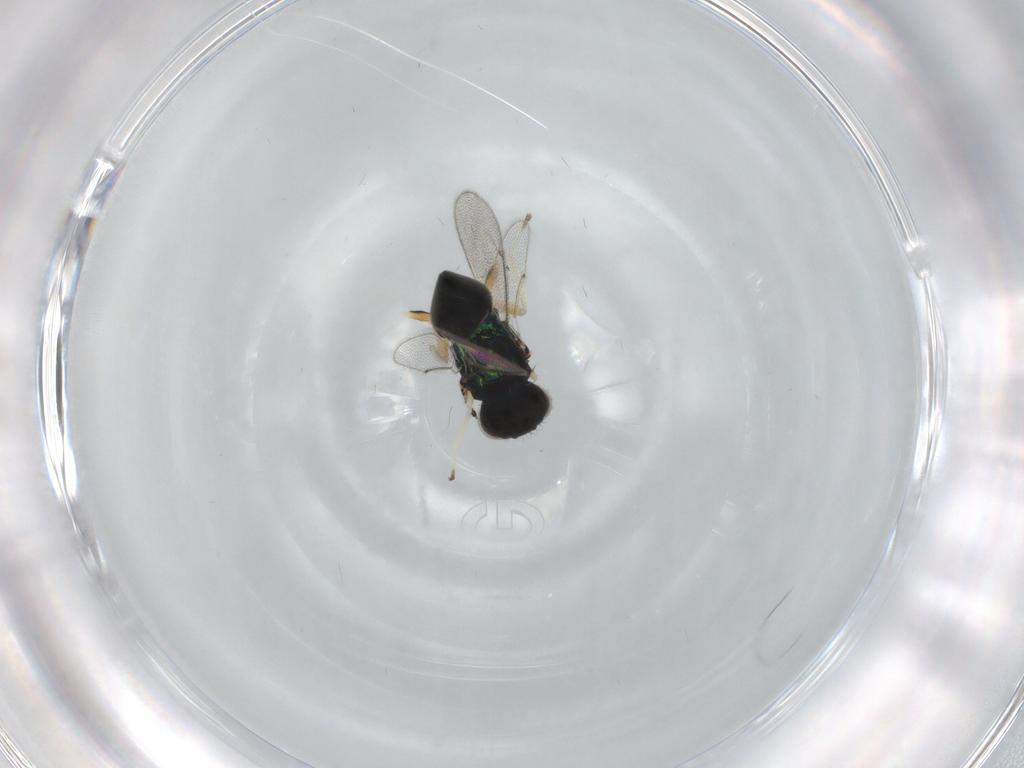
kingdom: Animalia
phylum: Arthropoda
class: Insecta
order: Hymenoptera
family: Eulophidae
